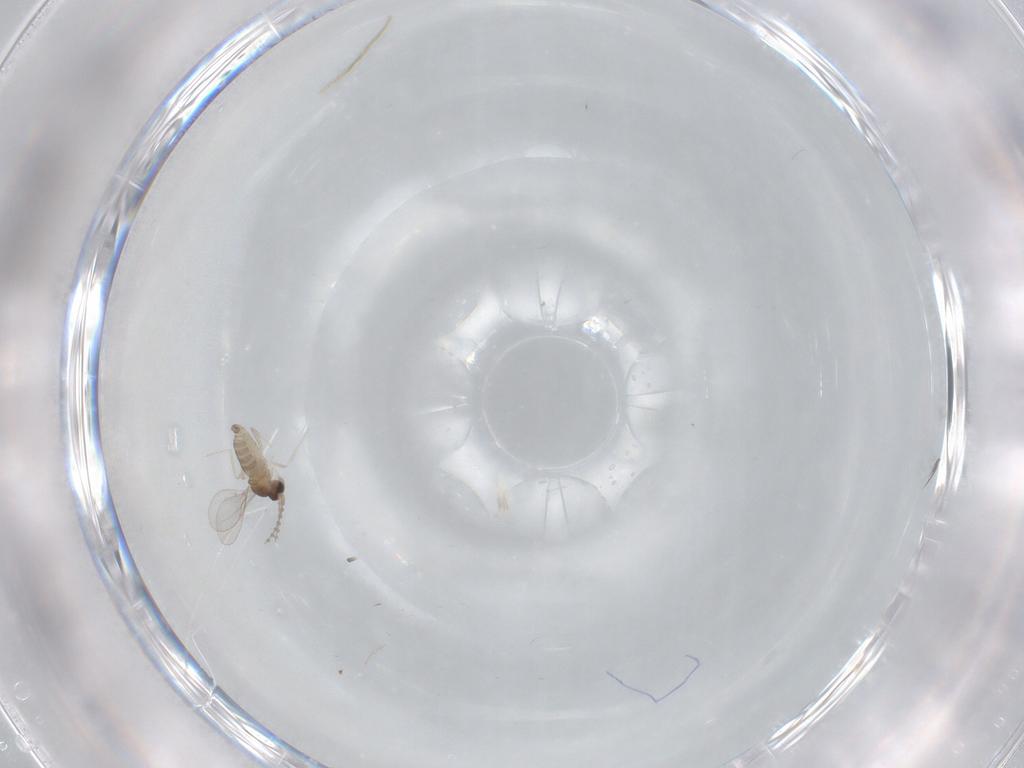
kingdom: Animalia
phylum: Arthropoda
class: Insecta
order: Diptera
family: Cecidomyiidae
